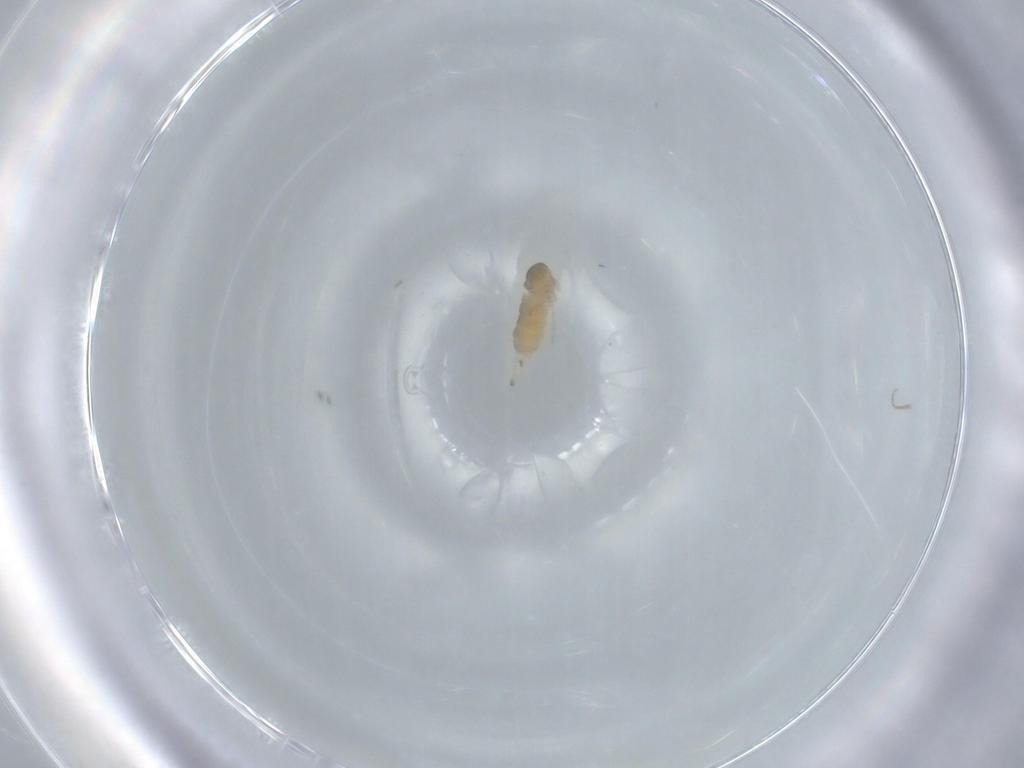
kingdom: Animalia
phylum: Arthropoda
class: Insecta
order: Diptera
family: Cecidomyiidae
